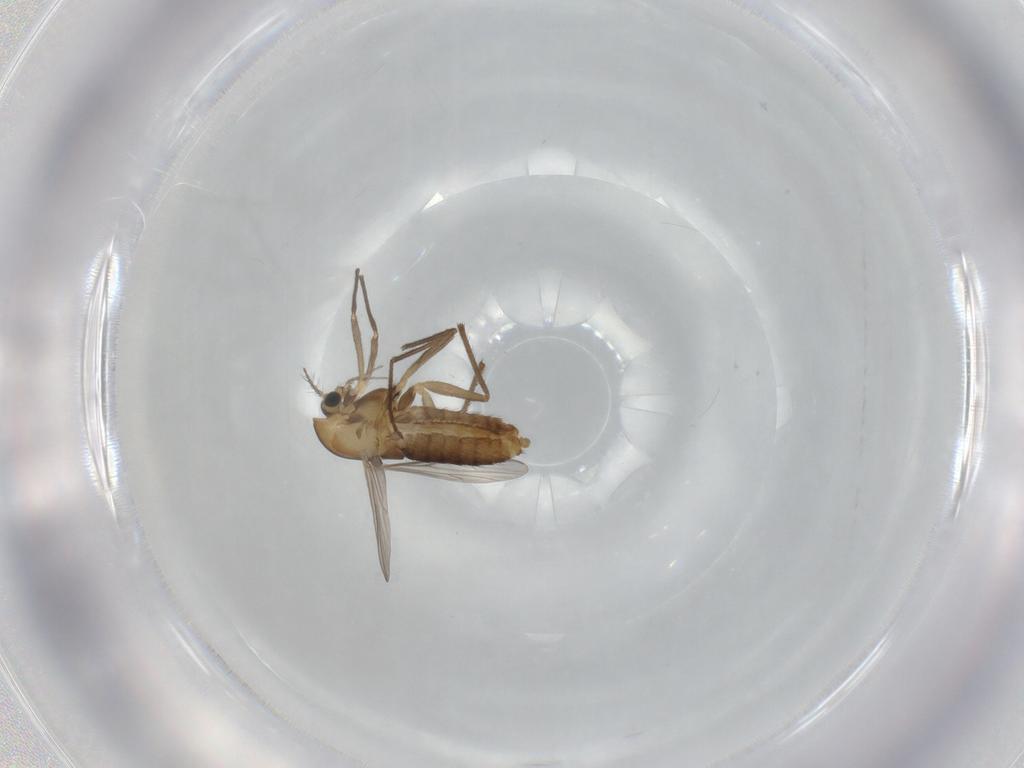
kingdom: Animalia
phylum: Arthropoda
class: Insecta
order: Diptera
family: Chironomidae
